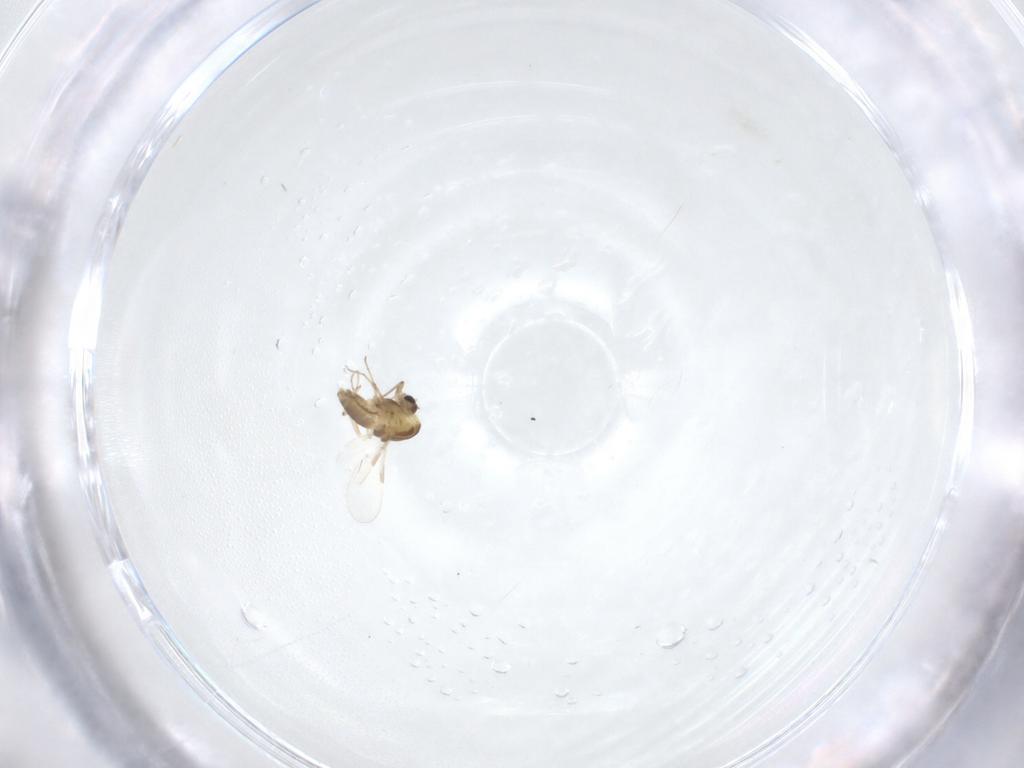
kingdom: Animalia
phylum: Arthropoda
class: Insecta
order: Diptera
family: Chironomidae
